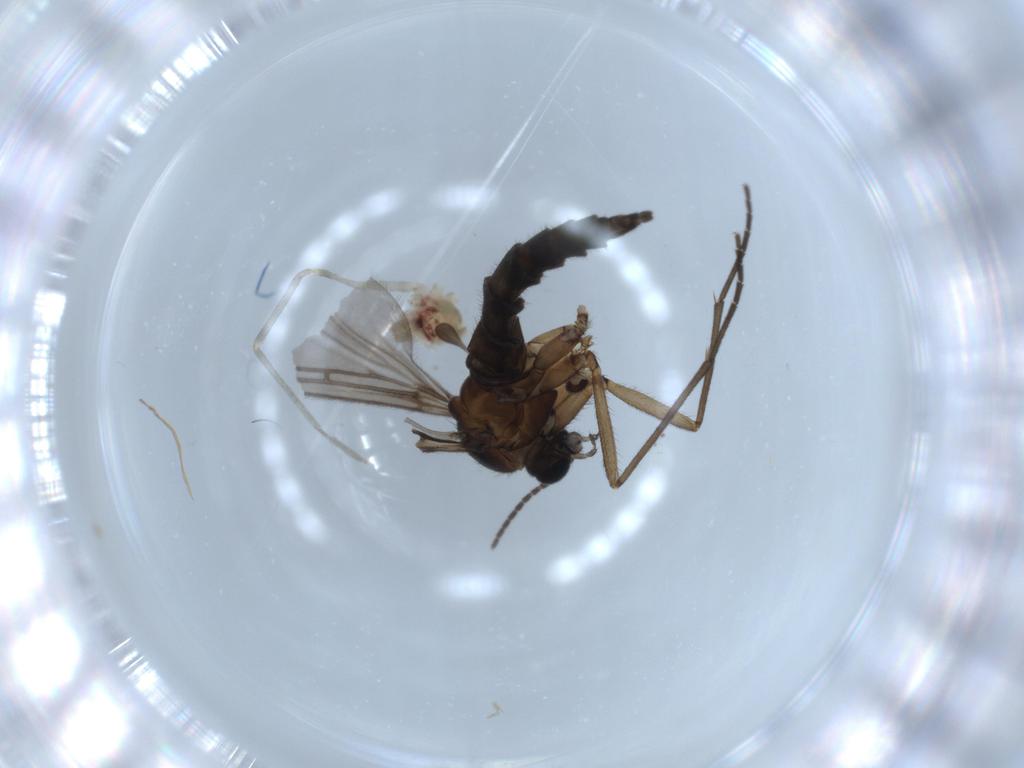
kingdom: Animalia
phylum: Arthropoda
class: Insecta
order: Diptera
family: Sciaridae
